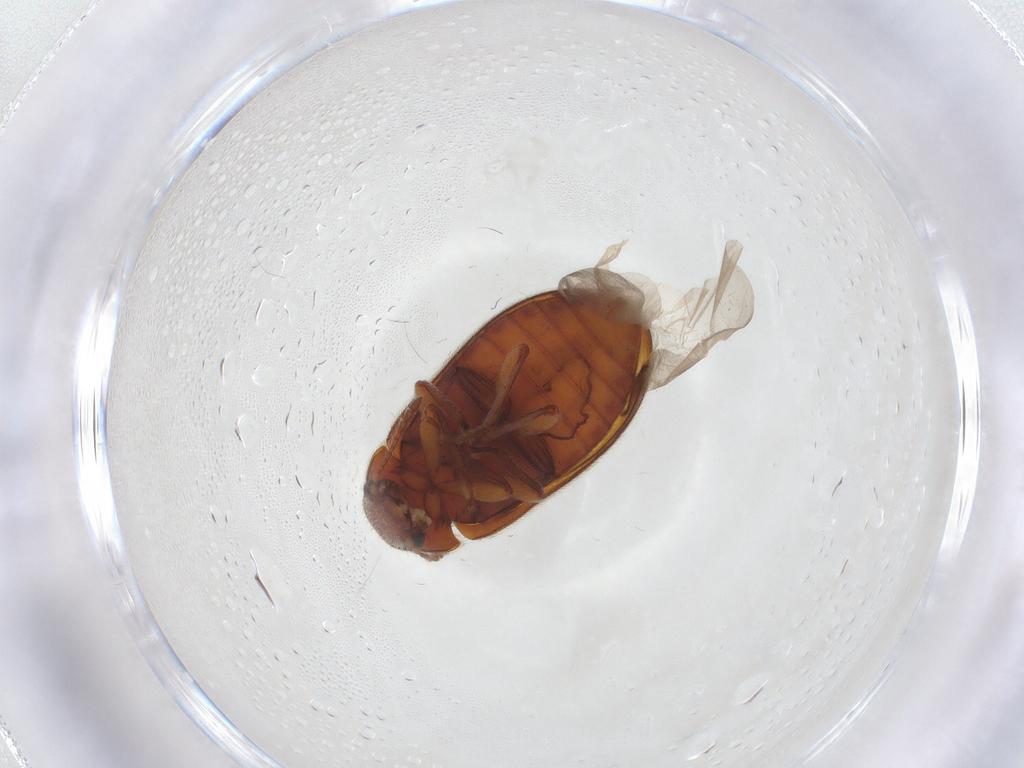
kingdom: Animalia
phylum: Arthropoda
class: Insecta
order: Coleoptera
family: Byturidae
